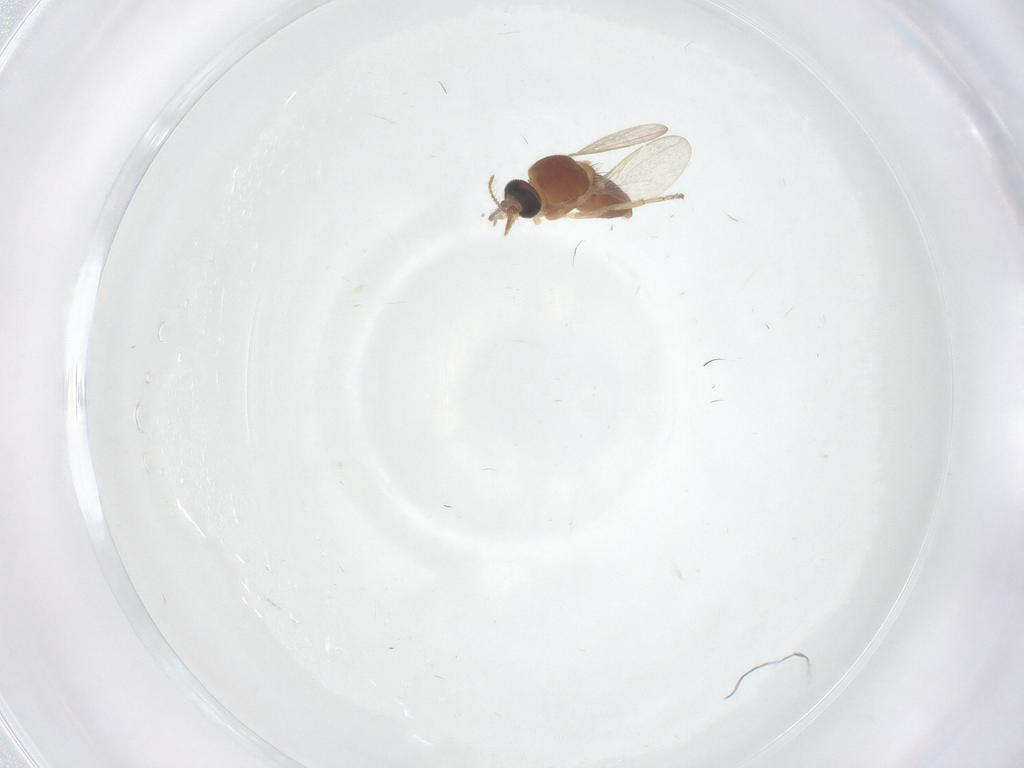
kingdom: Animalia
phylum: Arthropoda
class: Insecta
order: Diptera
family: Ceratopogonidae
